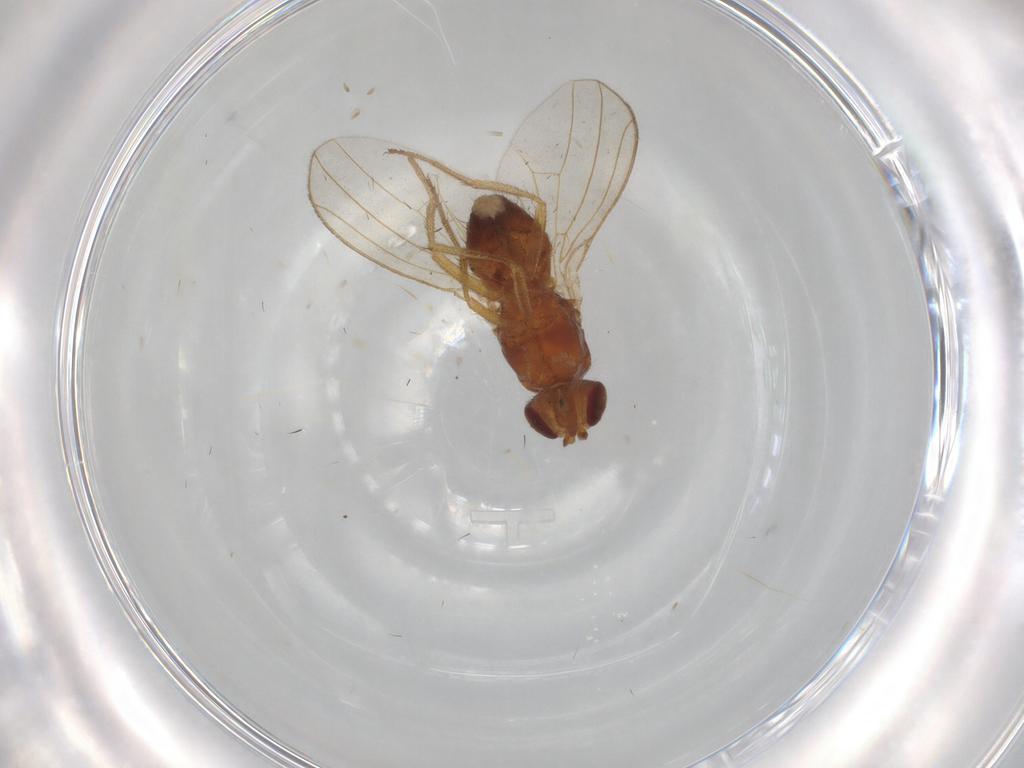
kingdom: Animalia
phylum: Arthropoda
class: Insecta
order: Diptera
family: Drosophilidae
